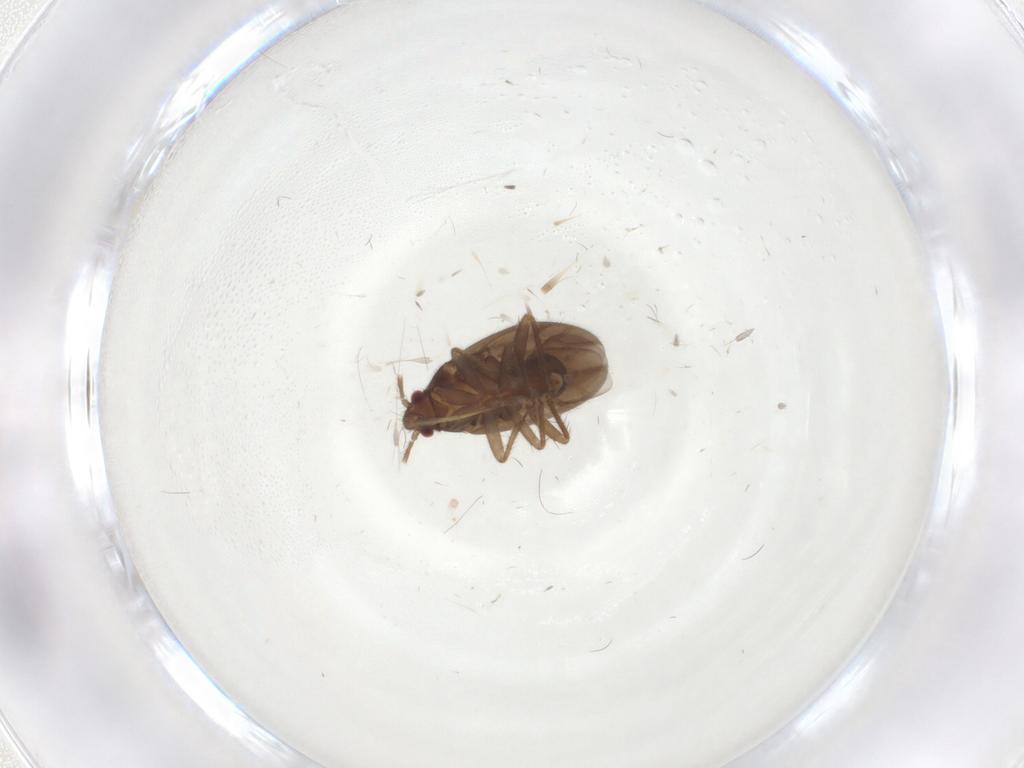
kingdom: Animalia
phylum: Arthropoda
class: Insecta
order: Hemiptera
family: Ceratocombidae
